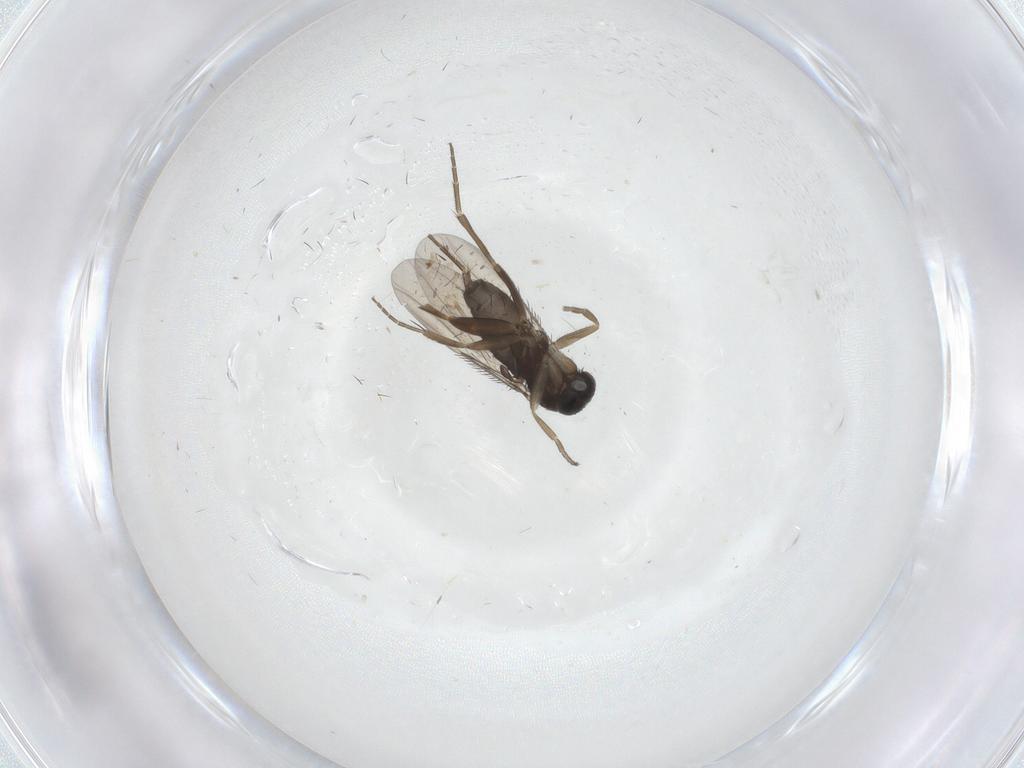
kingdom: Animalia
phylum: Arthropoda
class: Insecta
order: Diptera
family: Phoridae
